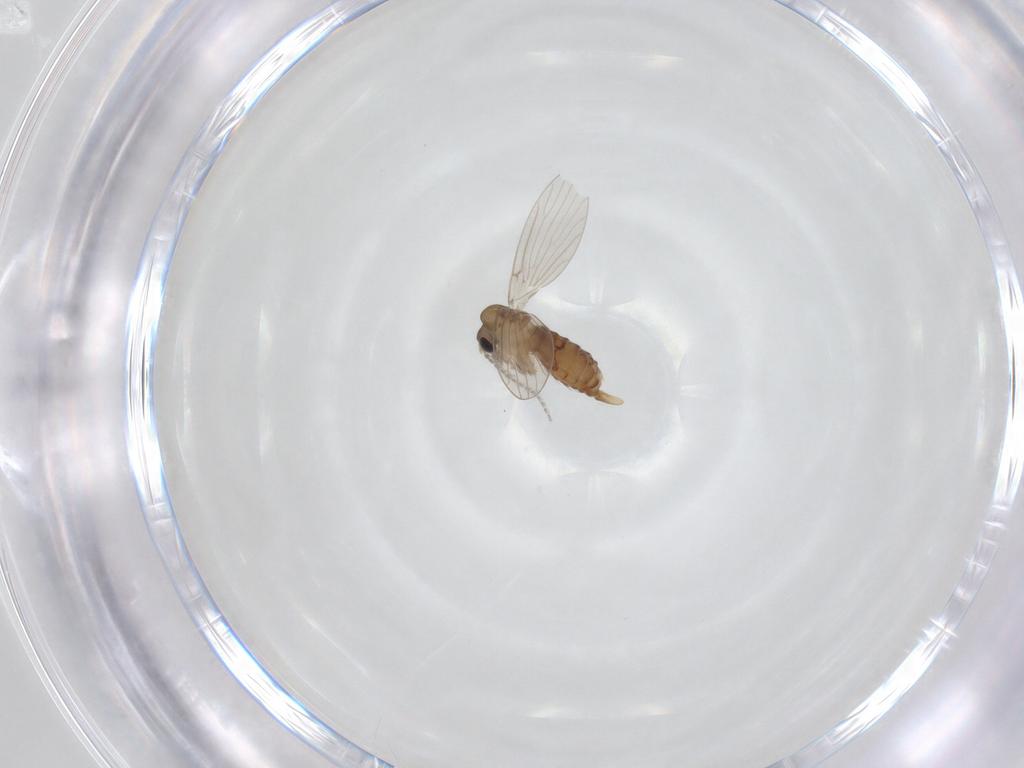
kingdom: Animalia
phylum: Arthropoda
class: Insecta
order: Diptera
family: Psychodidae
